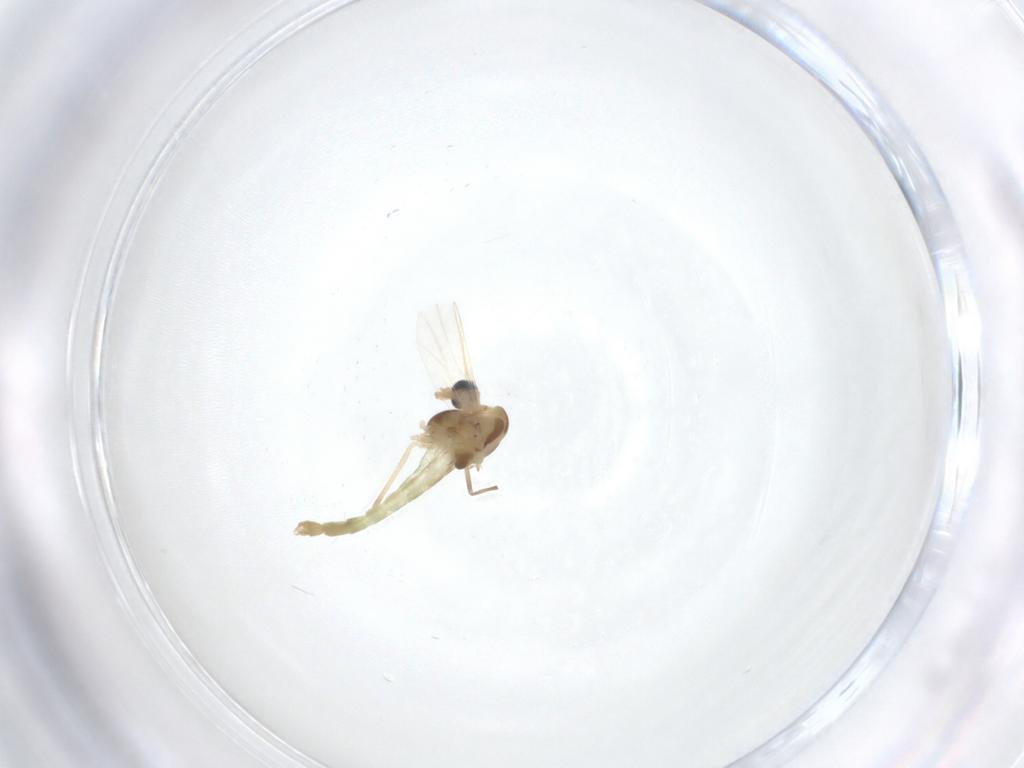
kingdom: Animalia
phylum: Arthropoda
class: Insecta
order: Diptera
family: Chironomidae
